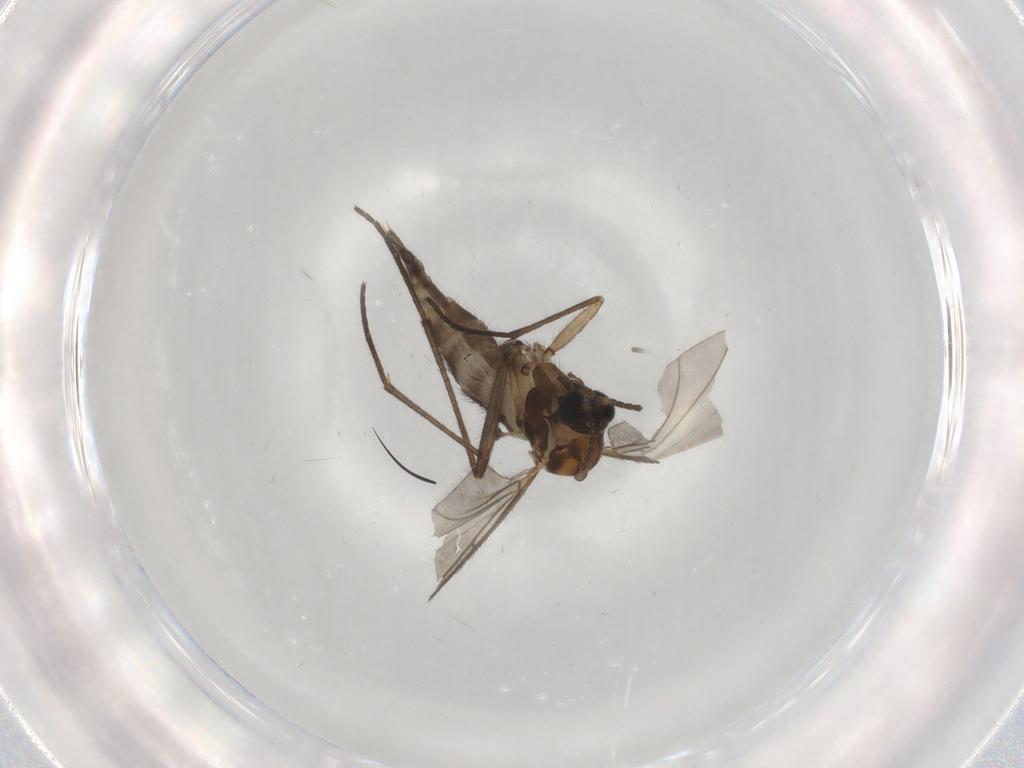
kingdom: Animalia
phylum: Arthropoda
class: Insecta
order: Diptera
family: Sciaridae
